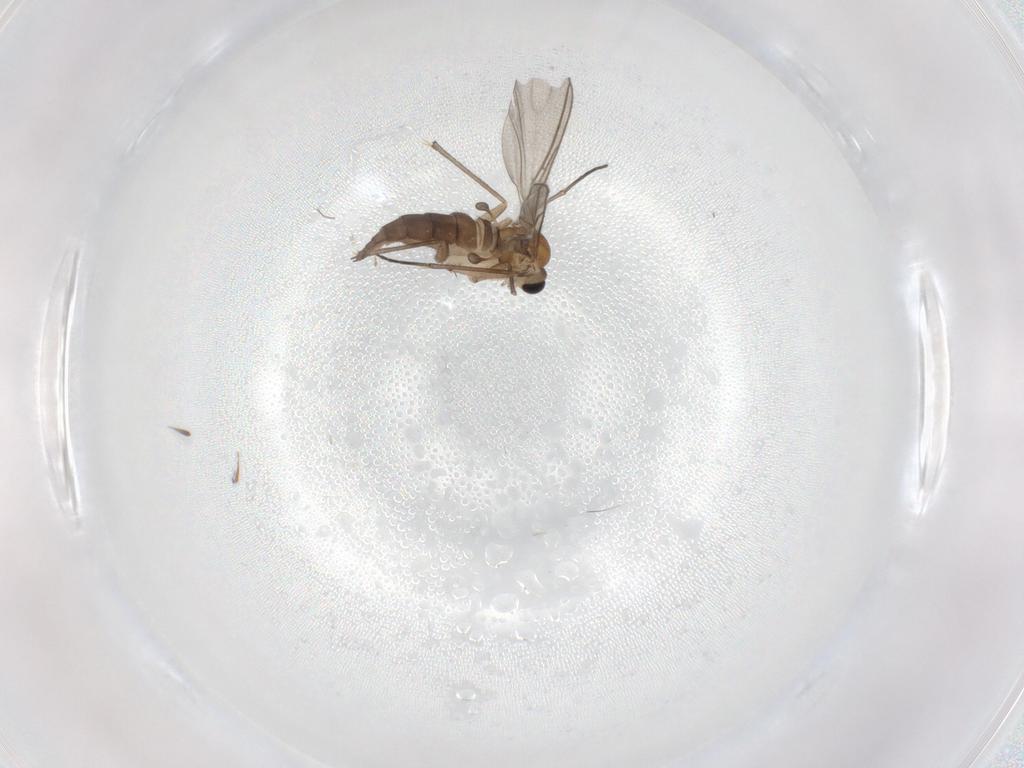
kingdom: Animalia
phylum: Arthropoda
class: Insecta
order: Diptera
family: Sciaridae
